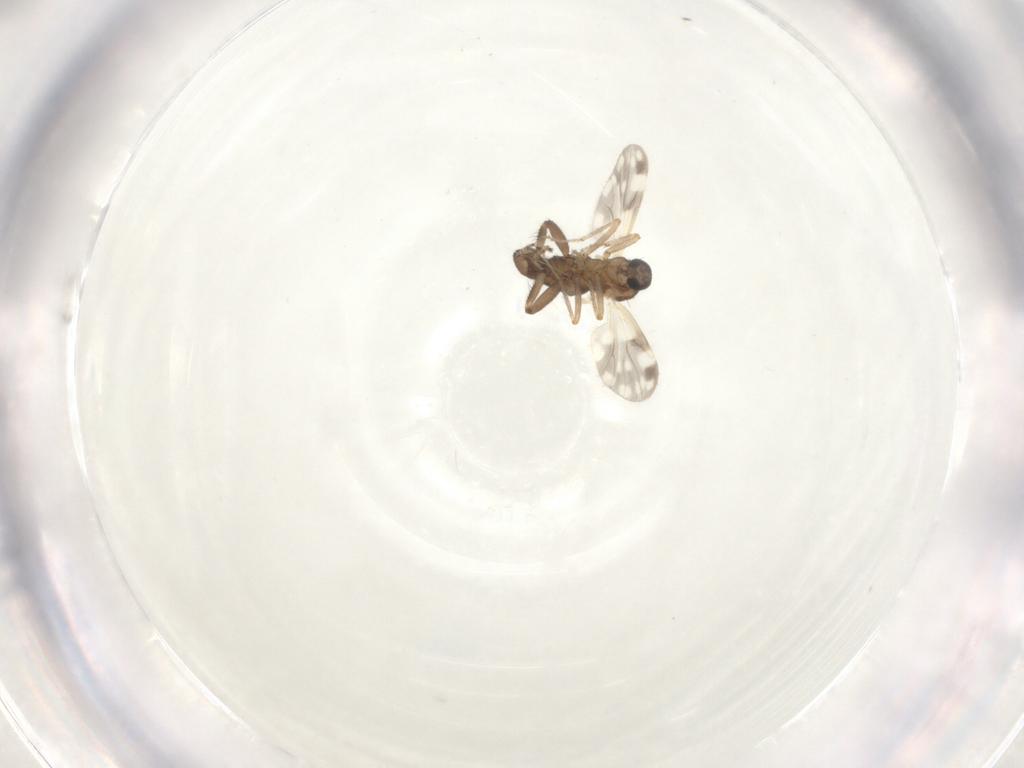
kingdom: Animalia
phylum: Arthropoda
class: Insecta
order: Diptera
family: Ceratopogonidae
